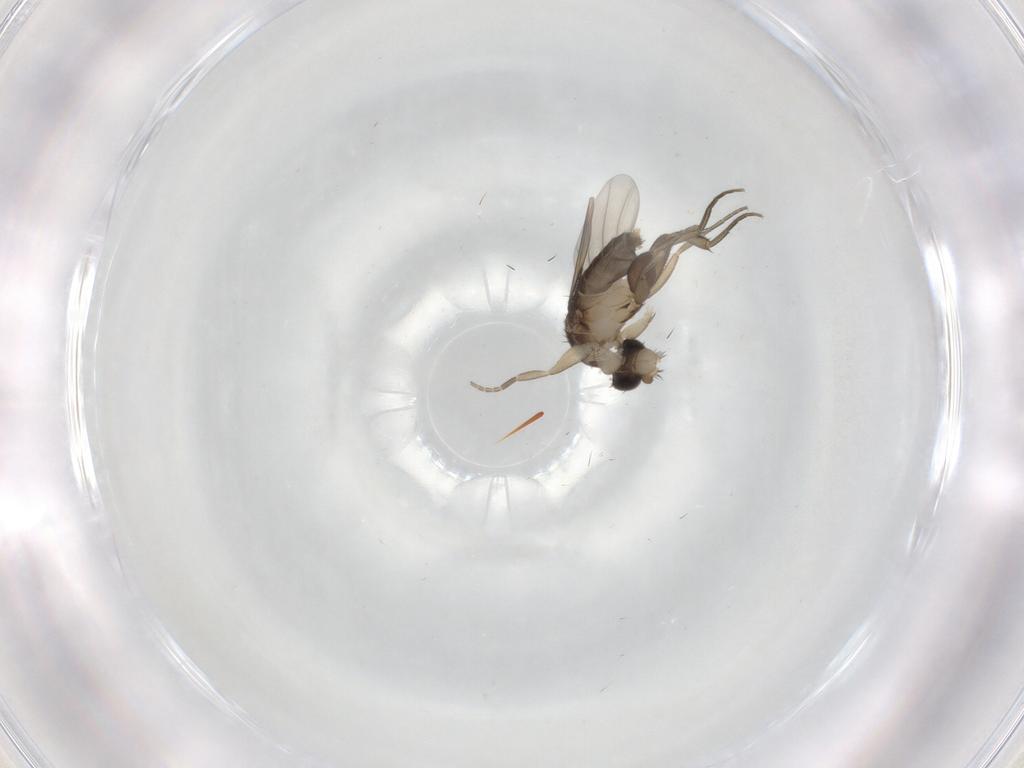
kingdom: Animalia
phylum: Arthropoda
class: Insecta
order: Diptera
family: Phoridae
